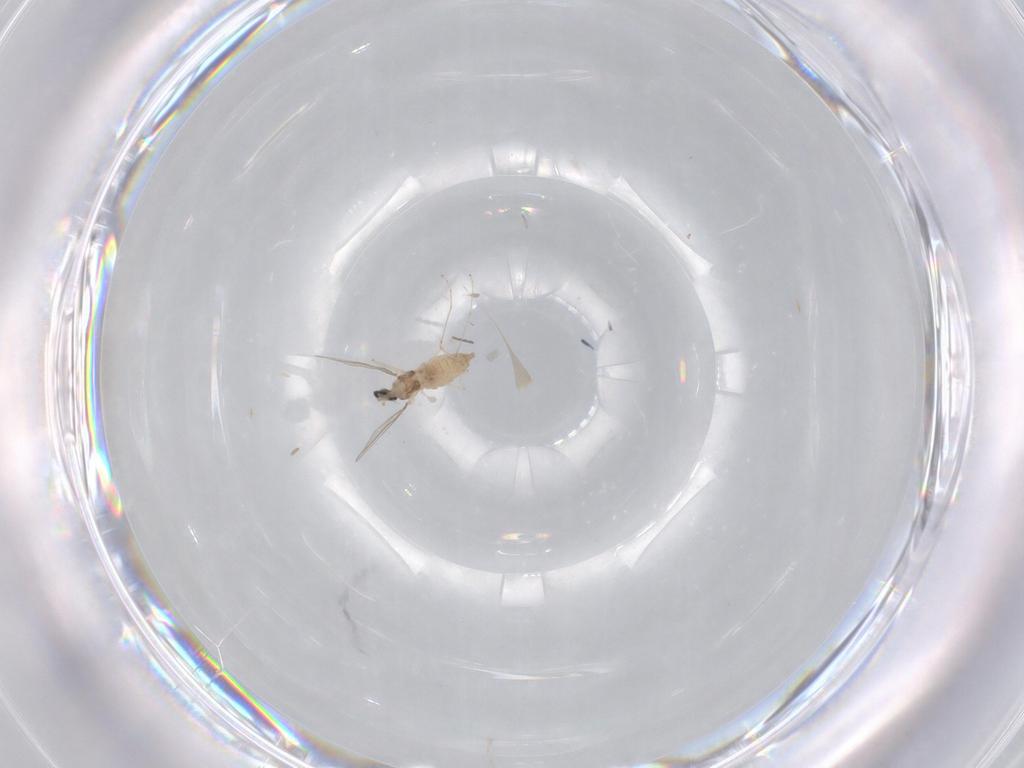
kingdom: Animalia
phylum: Arthropoda
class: Insecta
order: Diptera
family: Cecidomyiidae
